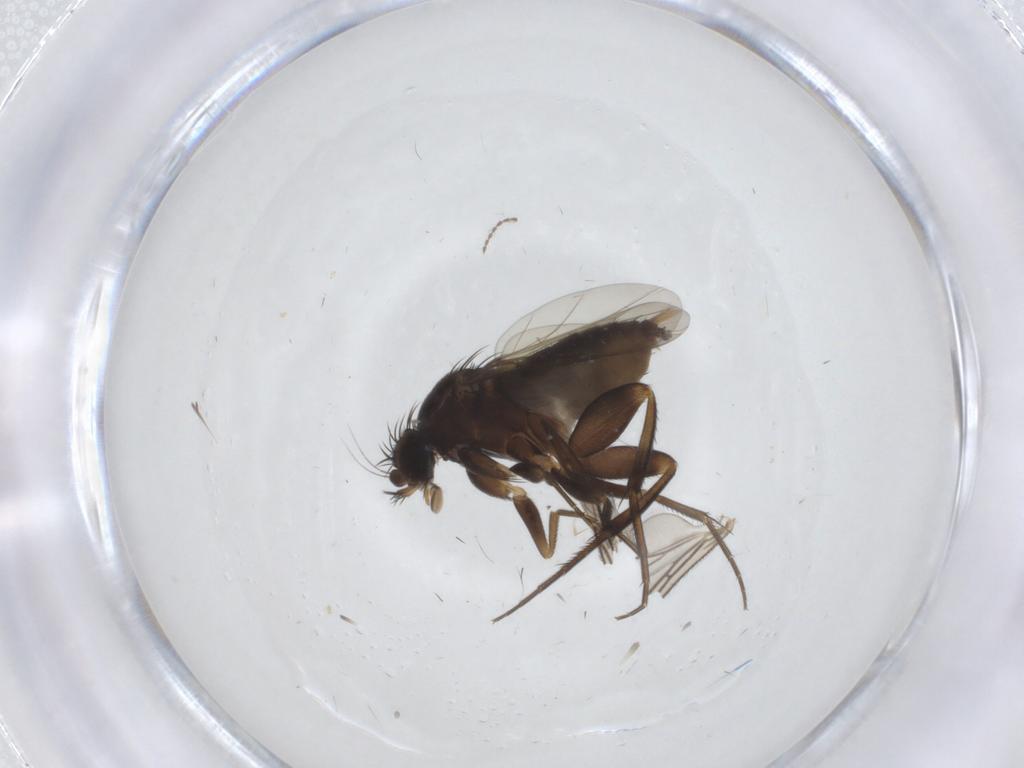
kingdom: Animalia
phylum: Arthropoda
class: Insecta
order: Diptera
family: Phoridae
